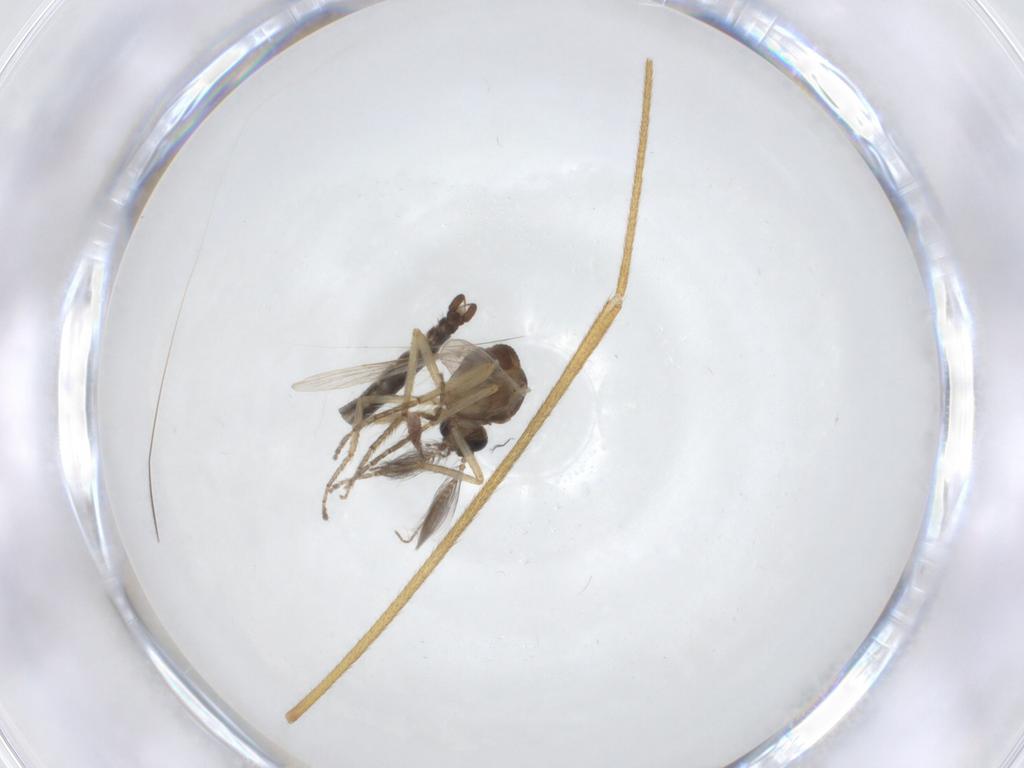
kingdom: Animalia
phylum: Arthropoda
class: Insecta
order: Diptera
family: Ceratopogonidae
